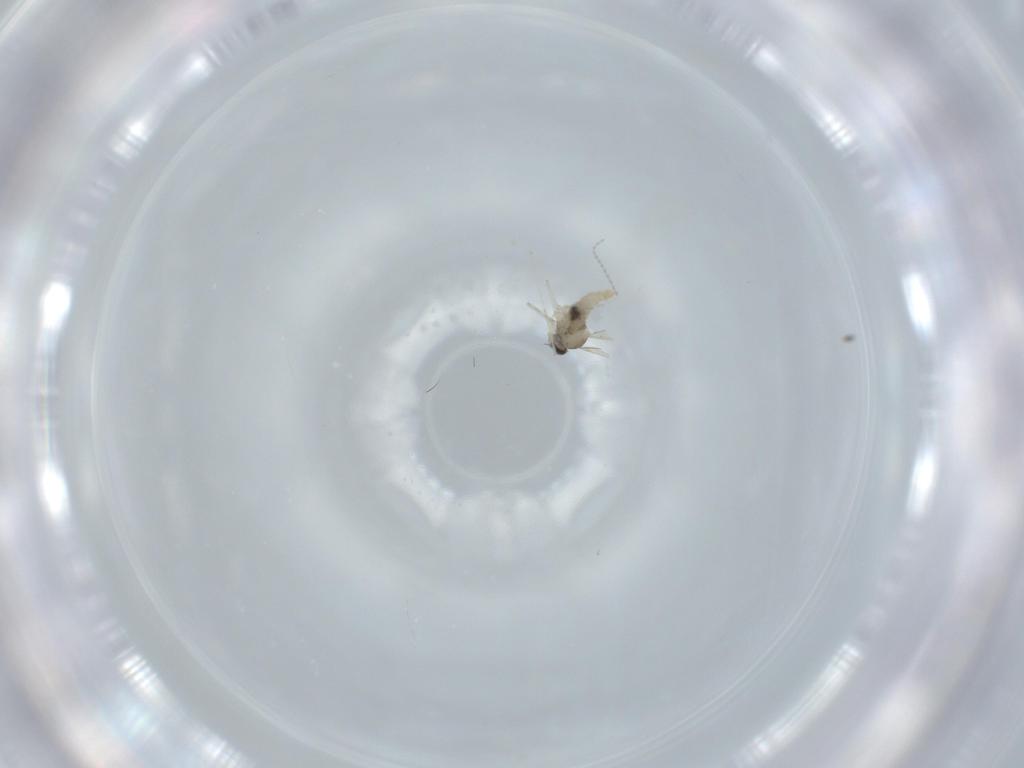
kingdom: Animalia
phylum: Arthropoda
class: Insecta
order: Diptera
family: Cecidomyiidae
